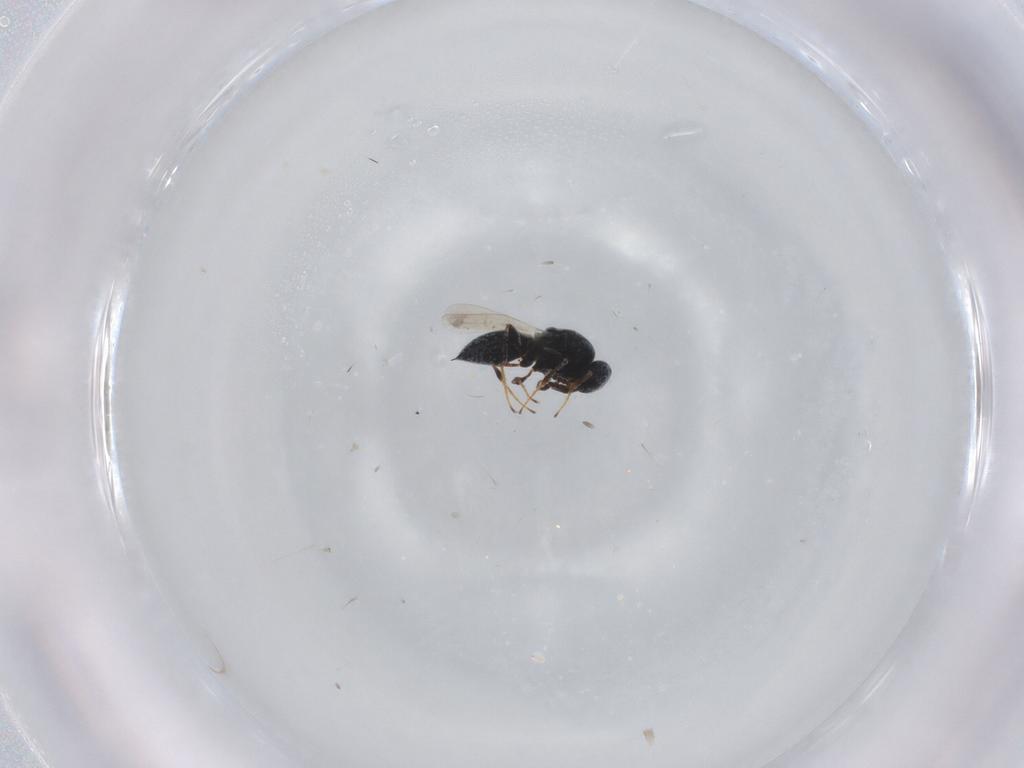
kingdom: Animalia
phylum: Arthropoda
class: Insecta
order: Hymenoptera
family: Platygastridae
